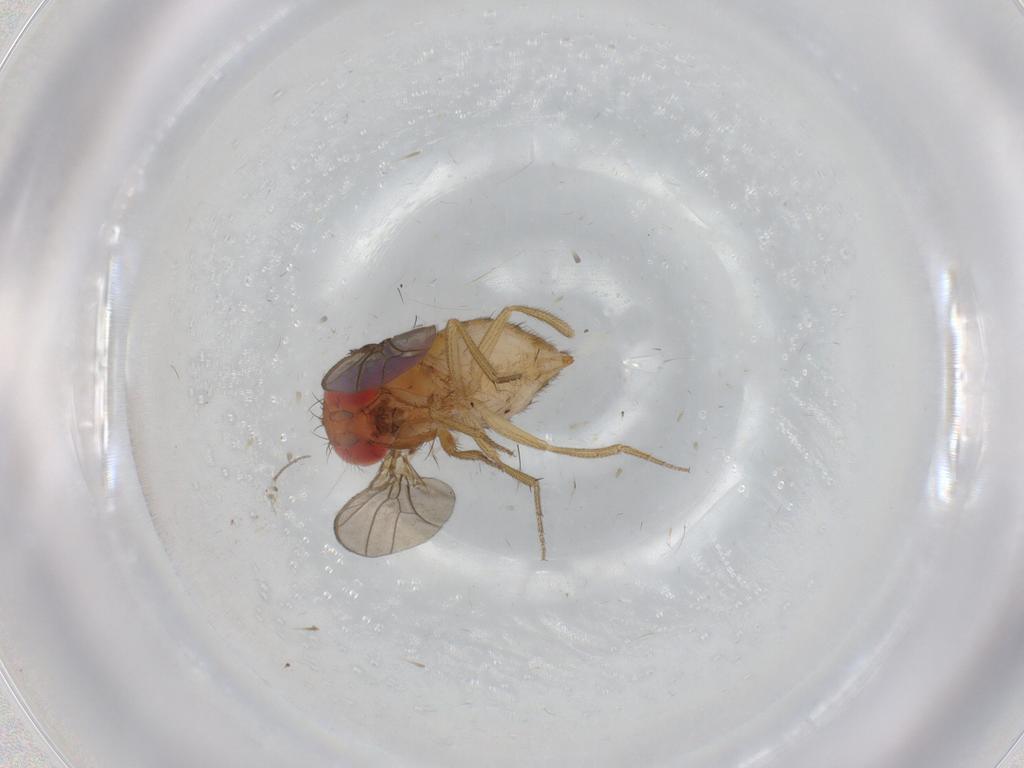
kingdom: Animalia
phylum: Arthropoda
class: Insecta
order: Diptera
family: Drosophilidae
